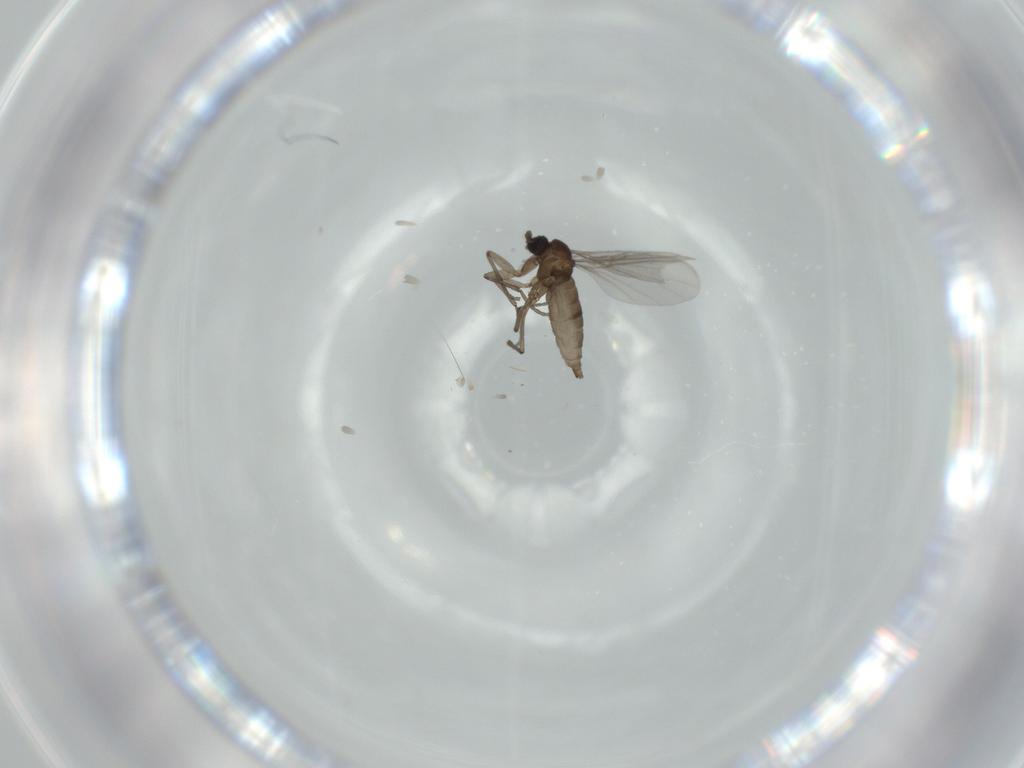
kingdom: Animalia
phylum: Arthropoda
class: Insecta
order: Diptera
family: Sciaridae
